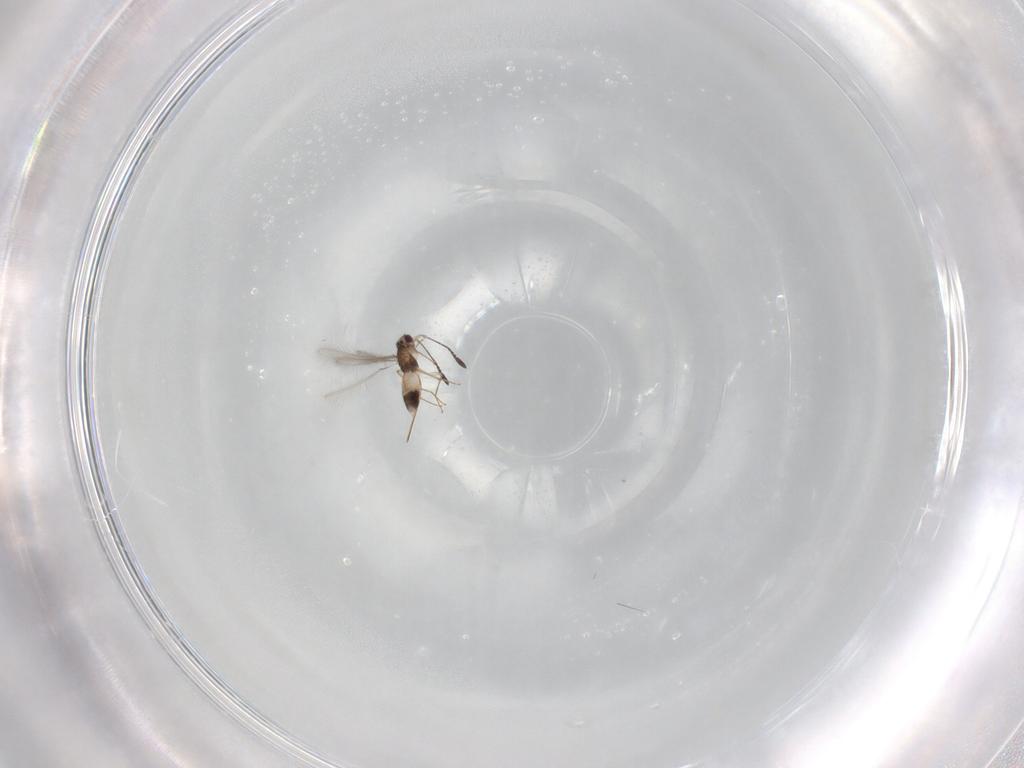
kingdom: Animalia
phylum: Arthropoda
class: Insecta
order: Hymenoptera
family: Mymaridae
